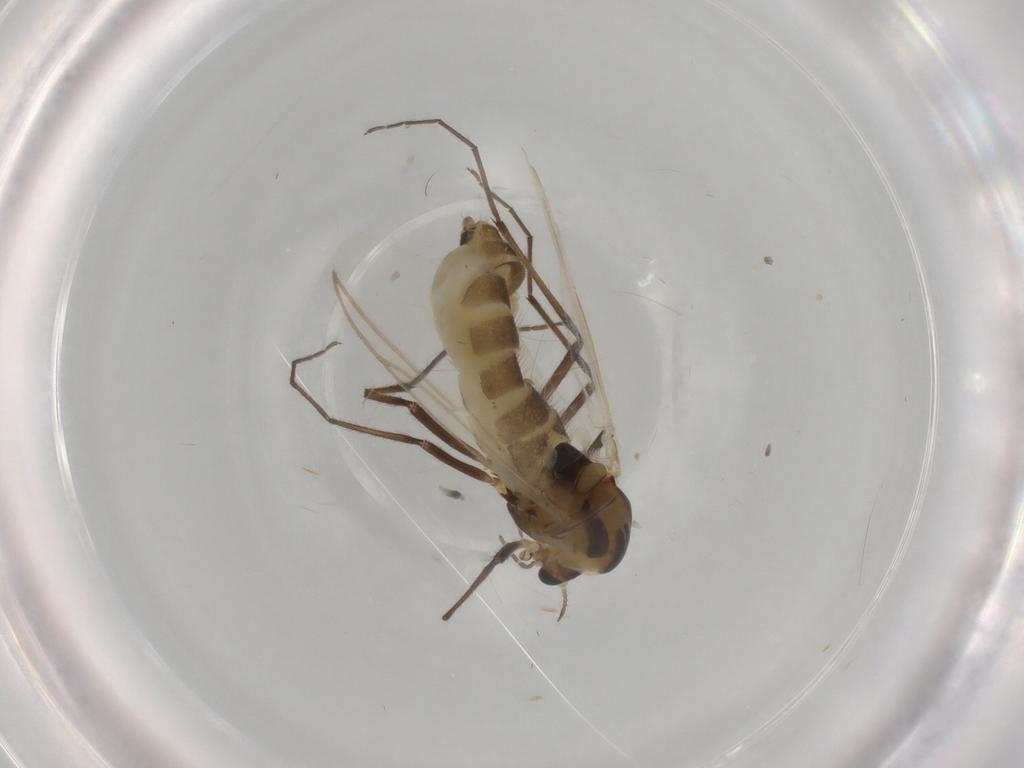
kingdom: Animalia
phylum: Arthropoda
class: Insecta
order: Diptera
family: Chironomidae
